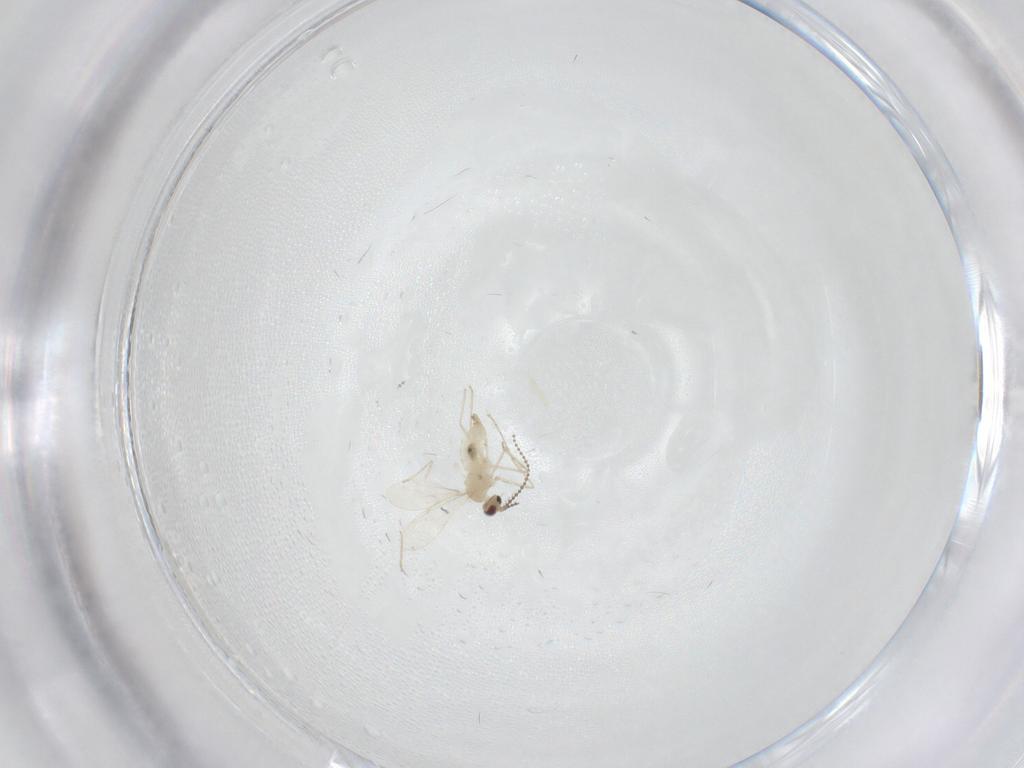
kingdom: Animalia
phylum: Arthropoda
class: Insecta
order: Diptera
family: Cecidomyiidae
